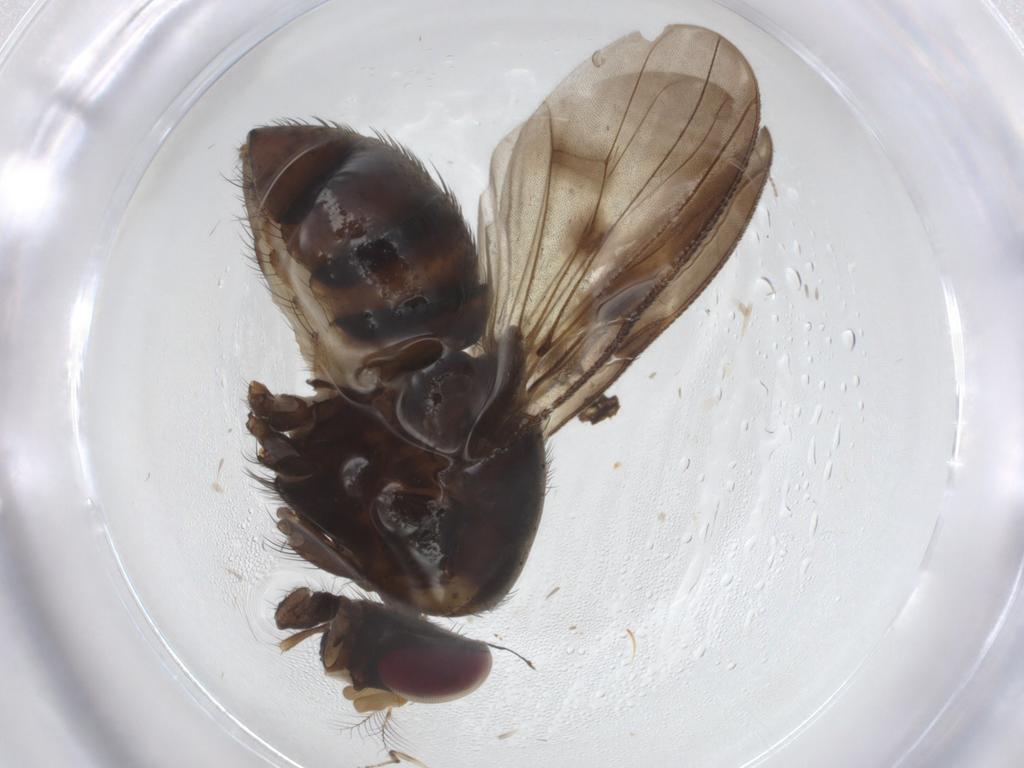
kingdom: Animalia
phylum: Arthropoda
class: Insecta
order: Diptera
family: Muscidae
